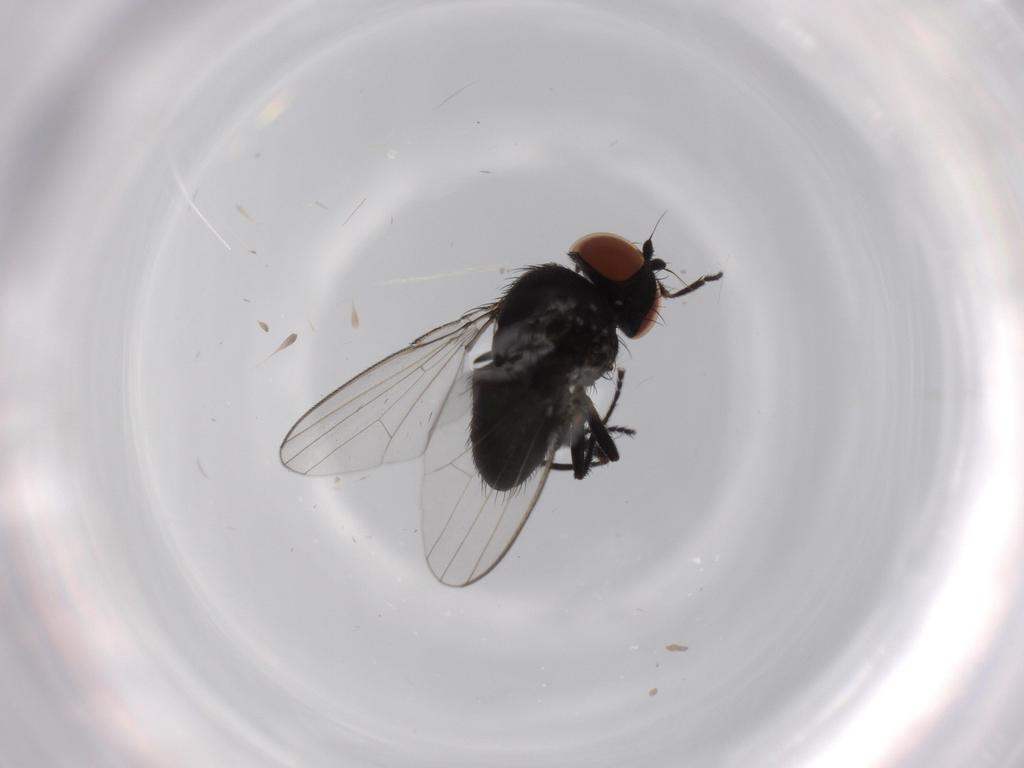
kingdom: Animalia
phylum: Arthropoda
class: Insecta
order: Diptera
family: Milichiidae
